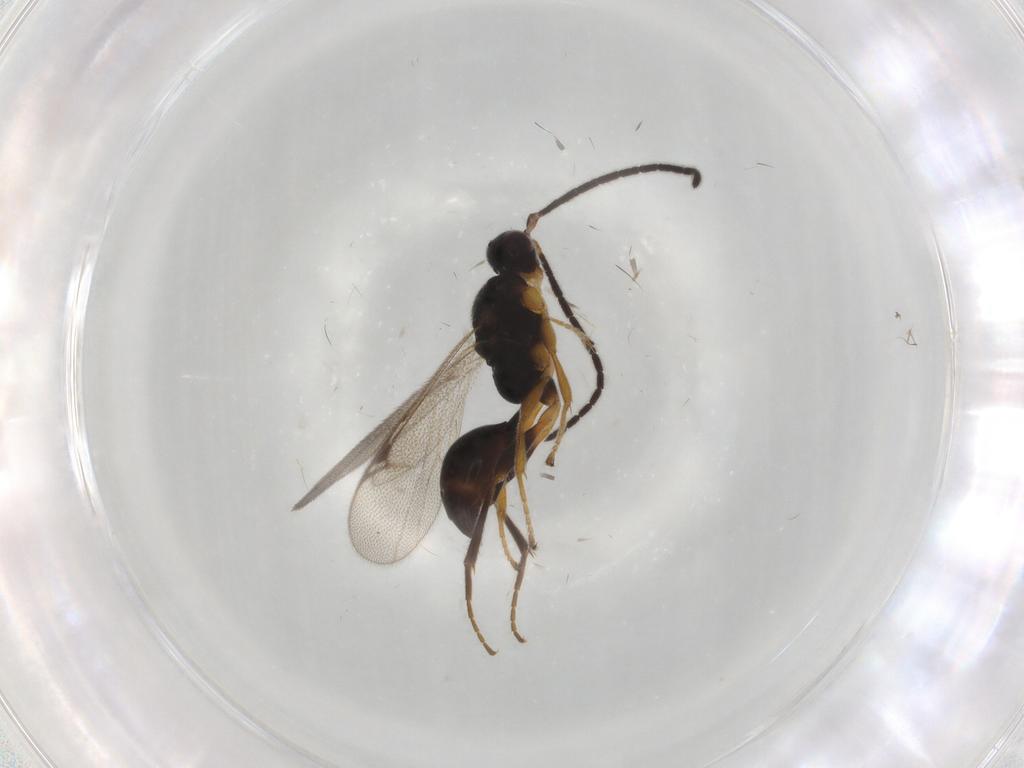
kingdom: Animalia
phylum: Arthropoda
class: Insecta
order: Hymenoptera
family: Proctotrupidae
